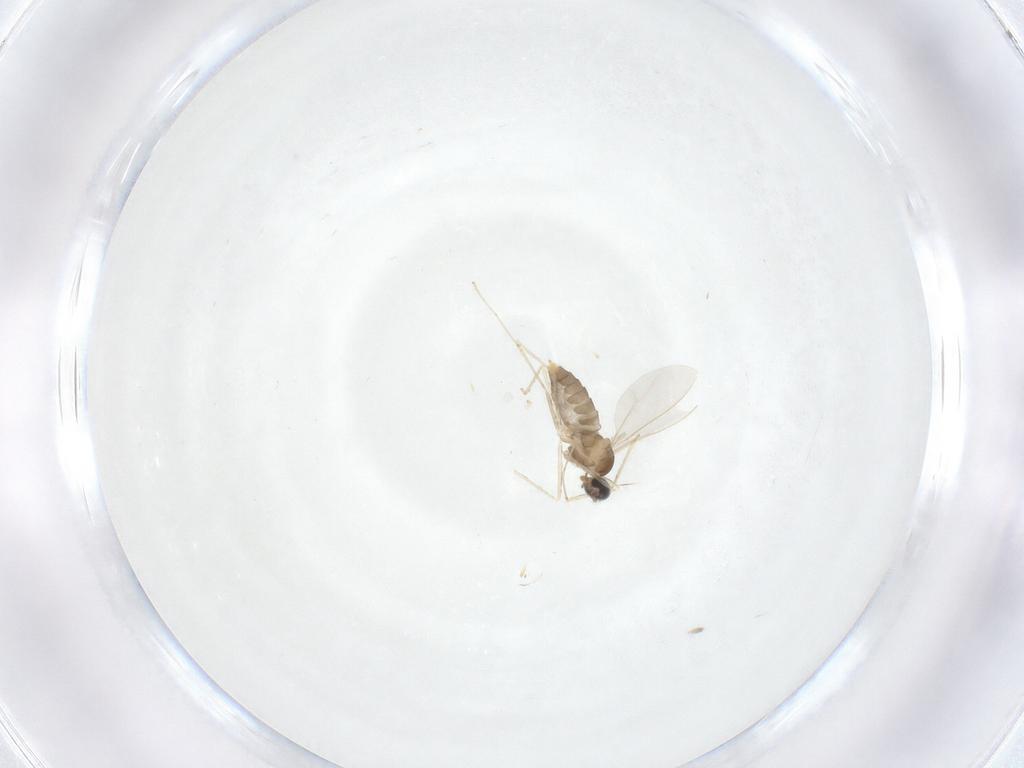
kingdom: Animalia
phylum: Arthropoda
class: Insecta
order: Diptera
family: Cecidomyiidae
